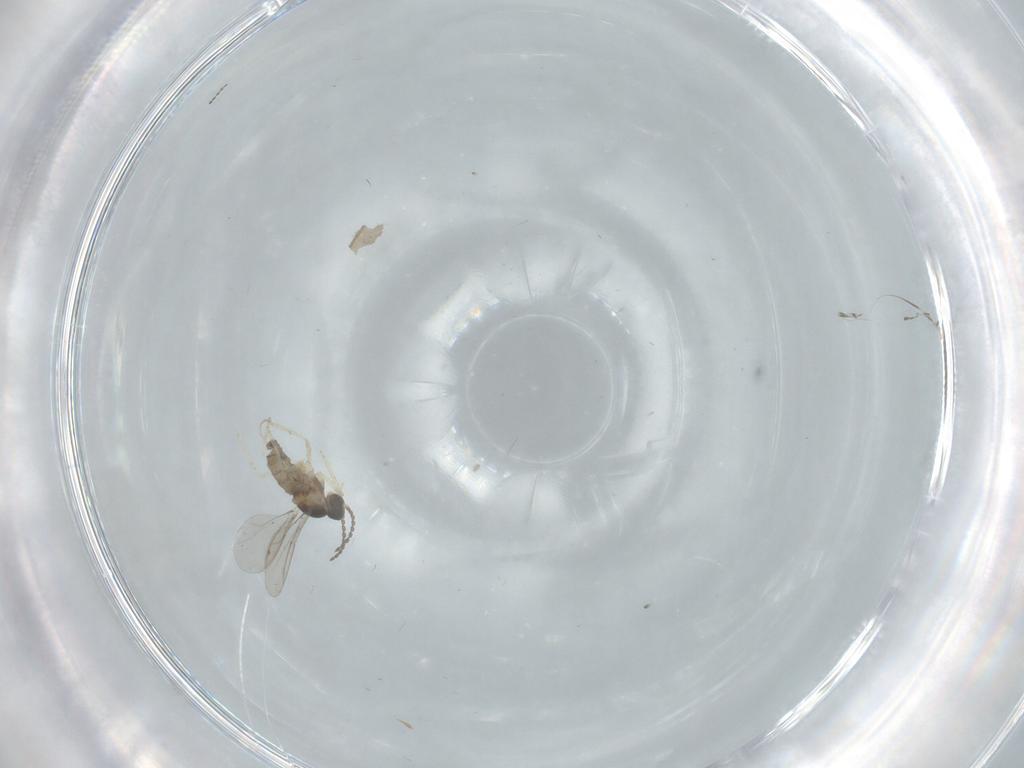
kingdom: Animalia
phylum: Arthropoda
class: Insecta
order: Diptera
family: Cecidomyiidae
